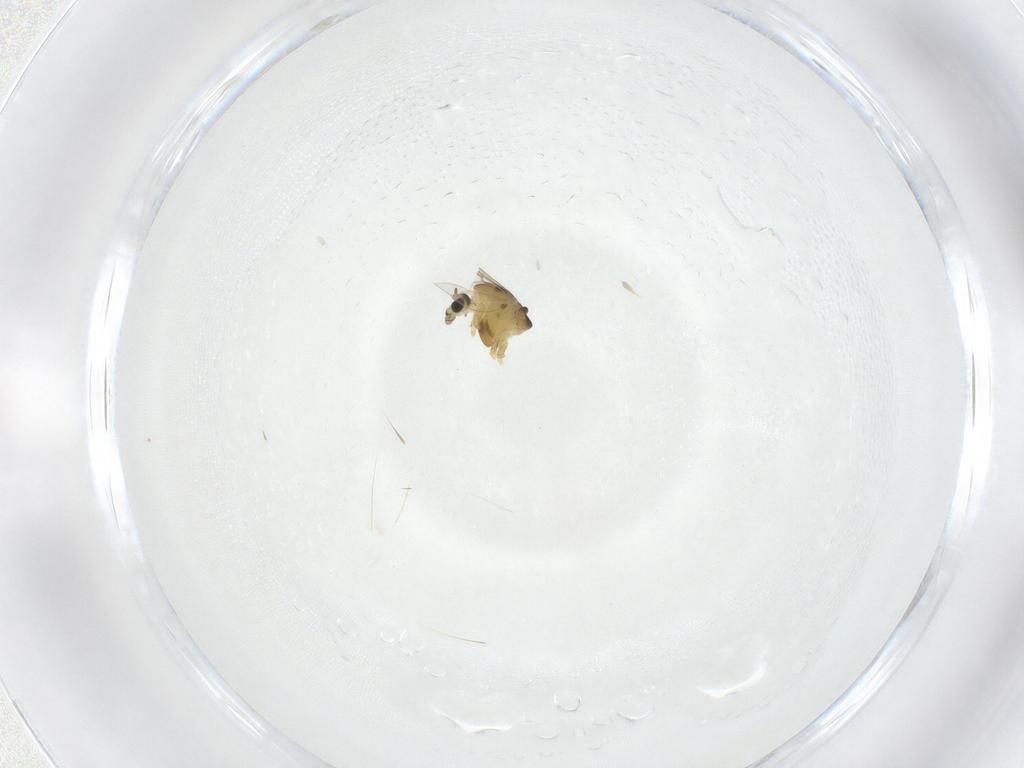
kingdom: Animalia
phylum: Arthropoda
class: Insecta
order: Diptera
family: Chironomidae
